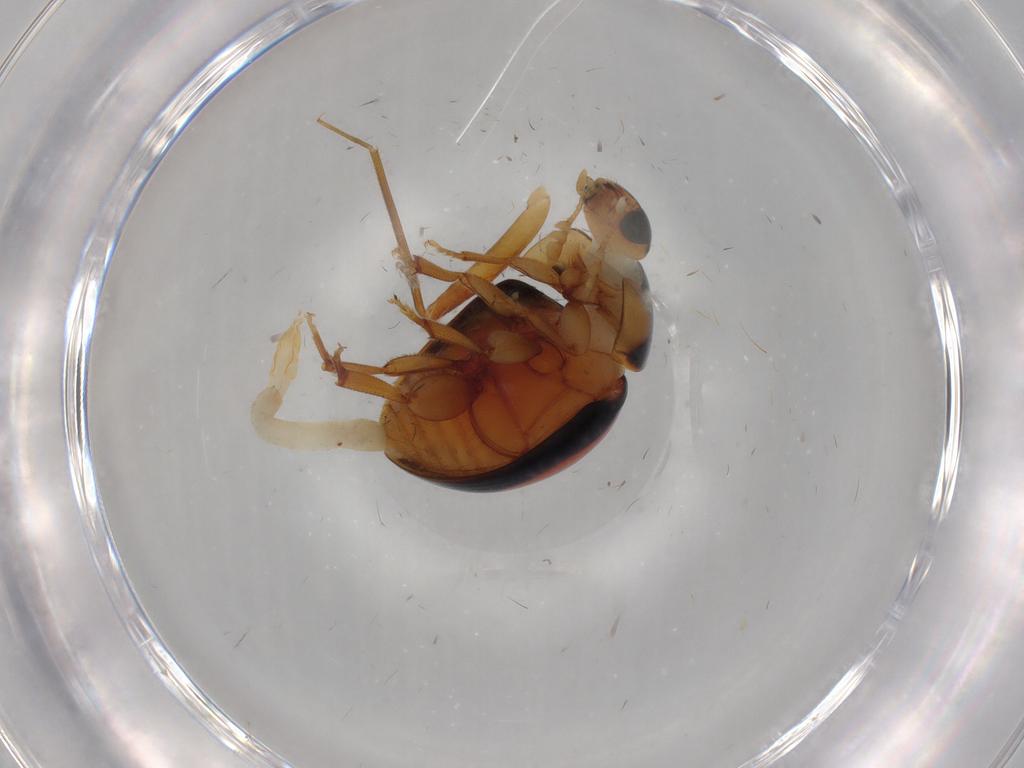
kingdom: Animalia
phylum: Arthropoda
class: Insecta
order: Coleoptera
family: Phalacridae
